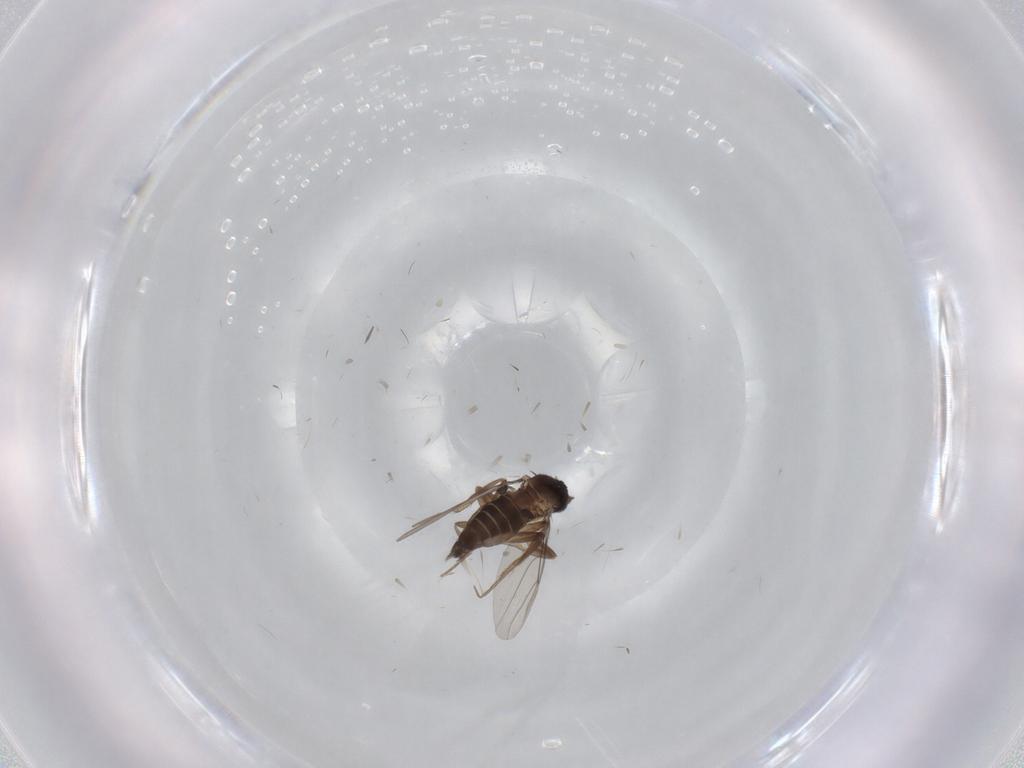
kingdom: Animalia
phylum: Arthropoda
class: Insecta
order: Diptera
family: Phoridae
